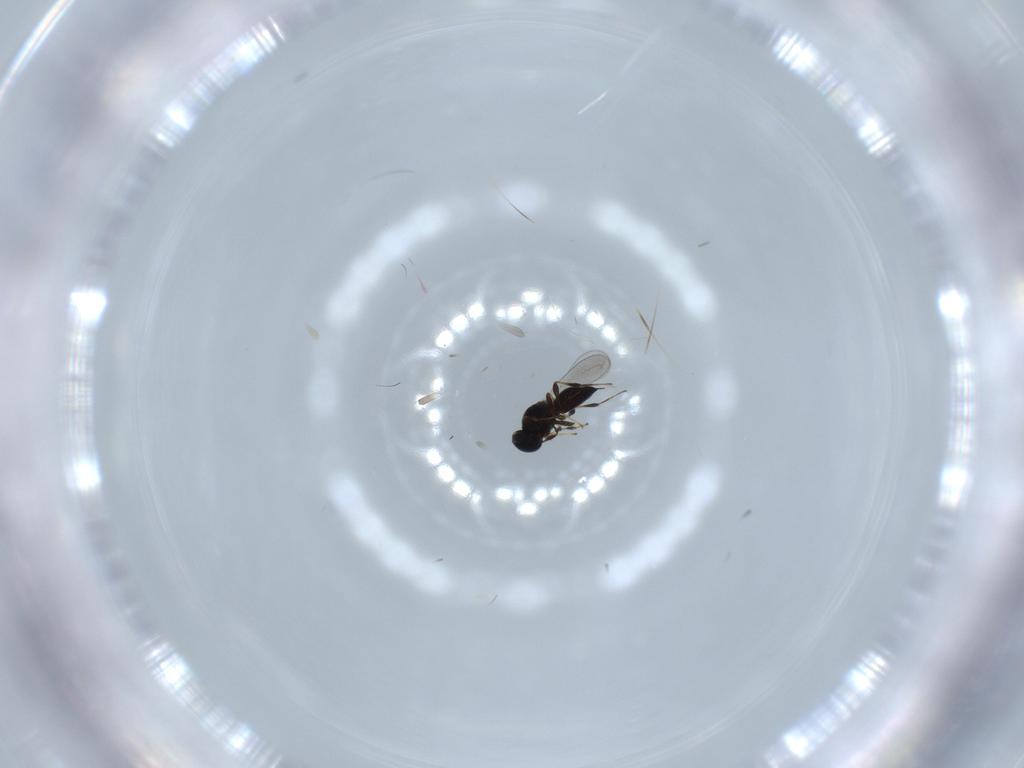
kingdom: Animalia
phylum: Arthropoda
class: Insecta
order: Hymenoptera
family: Platygastridae
